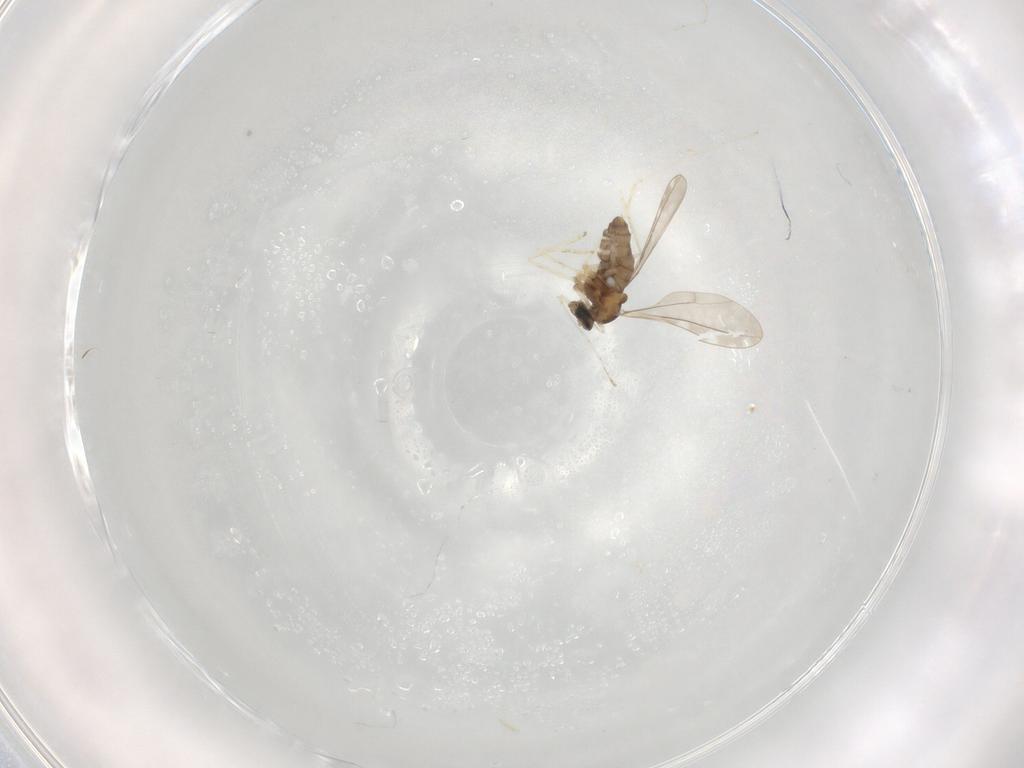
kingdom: Animalia
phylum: Arthropoda
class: Insecta
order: Diptera
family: Cecidomyiidae
